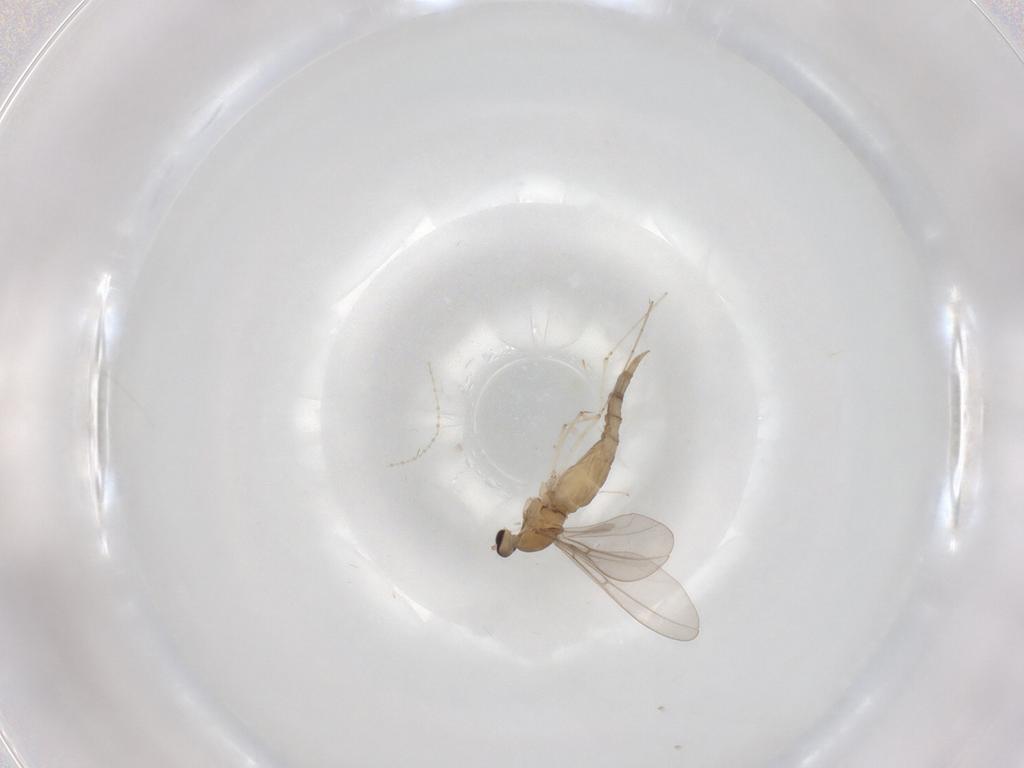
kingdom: Animalia
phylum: Arthropoda
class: Insecta
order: Diptera
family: Cecidomyiidae
